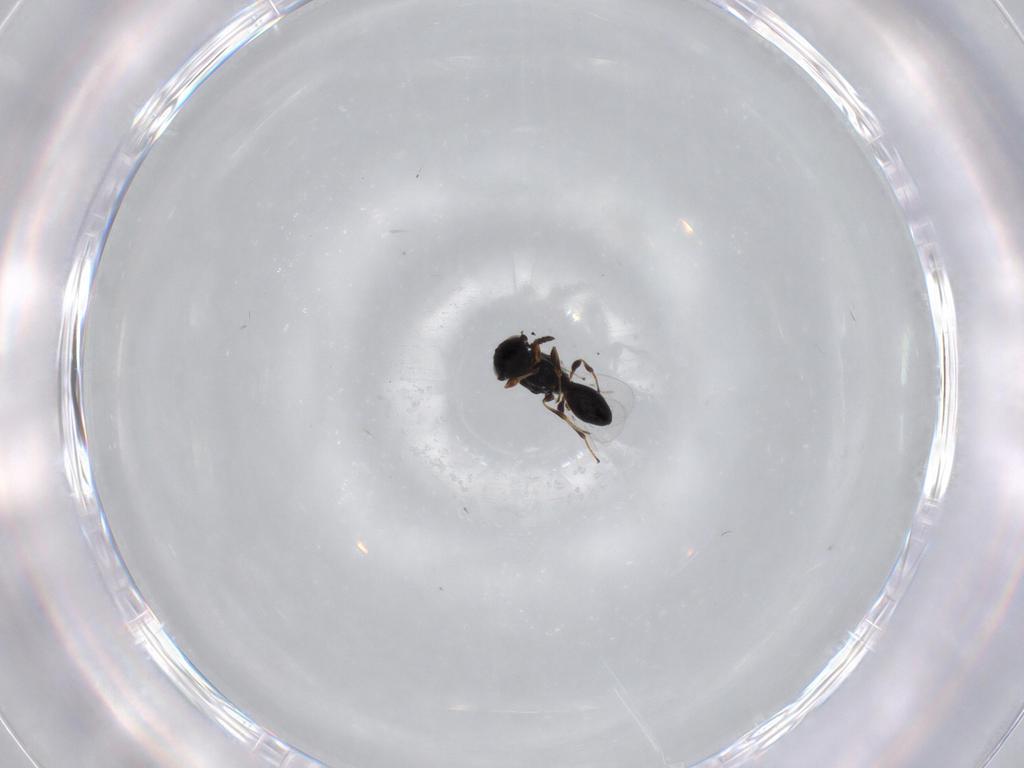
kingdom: Animalia
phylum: Arthropoda
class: Insecta
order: Hymenoptera
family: Platygastridae
